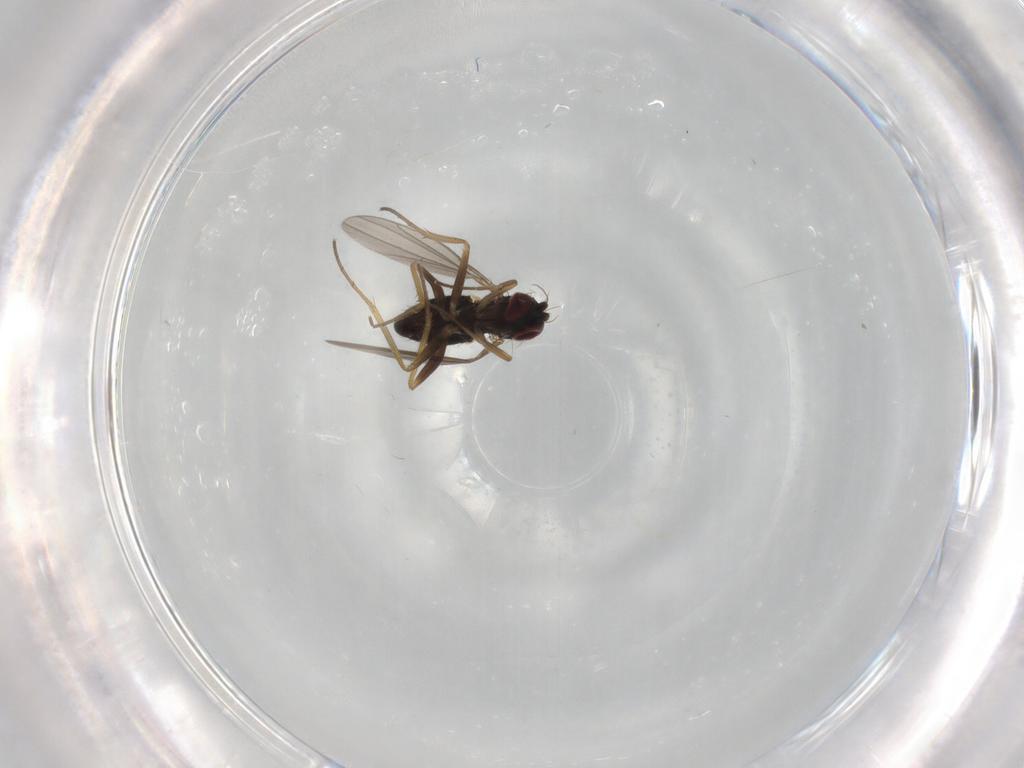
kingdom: Animalia
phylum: Arthropoda
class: Insecta
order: Diptera
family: Dolichopodidae
